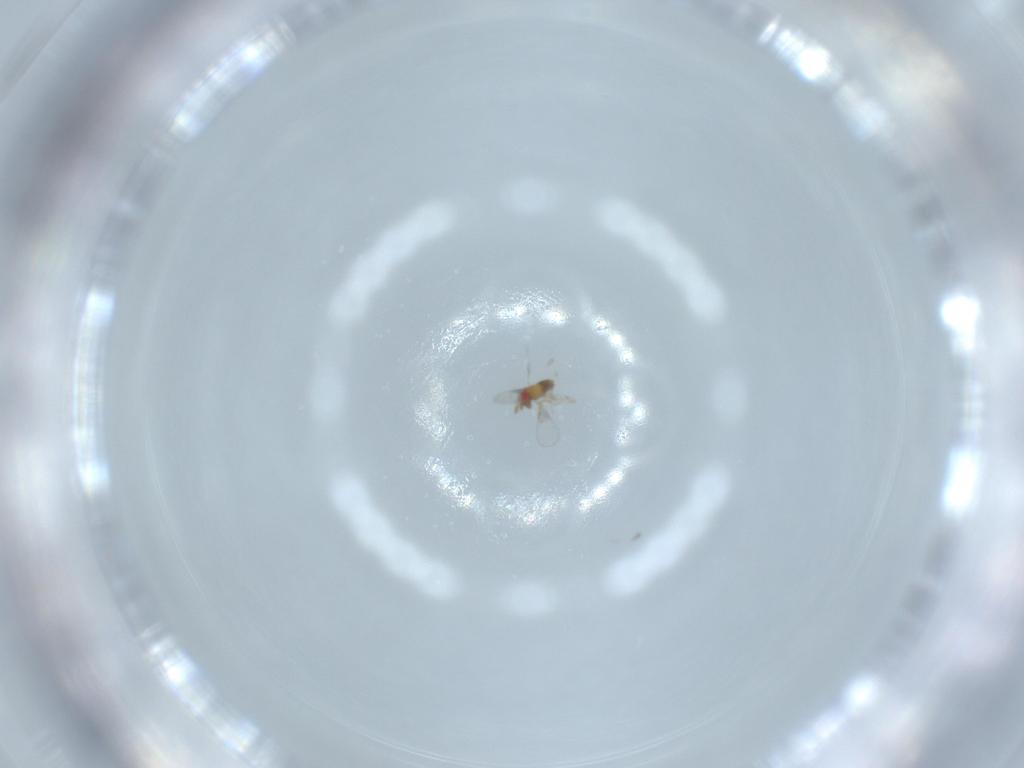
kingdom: Animalia
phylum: Arthropoda
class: Insecta
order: Hymenoptera
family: Trichogrammatidae
